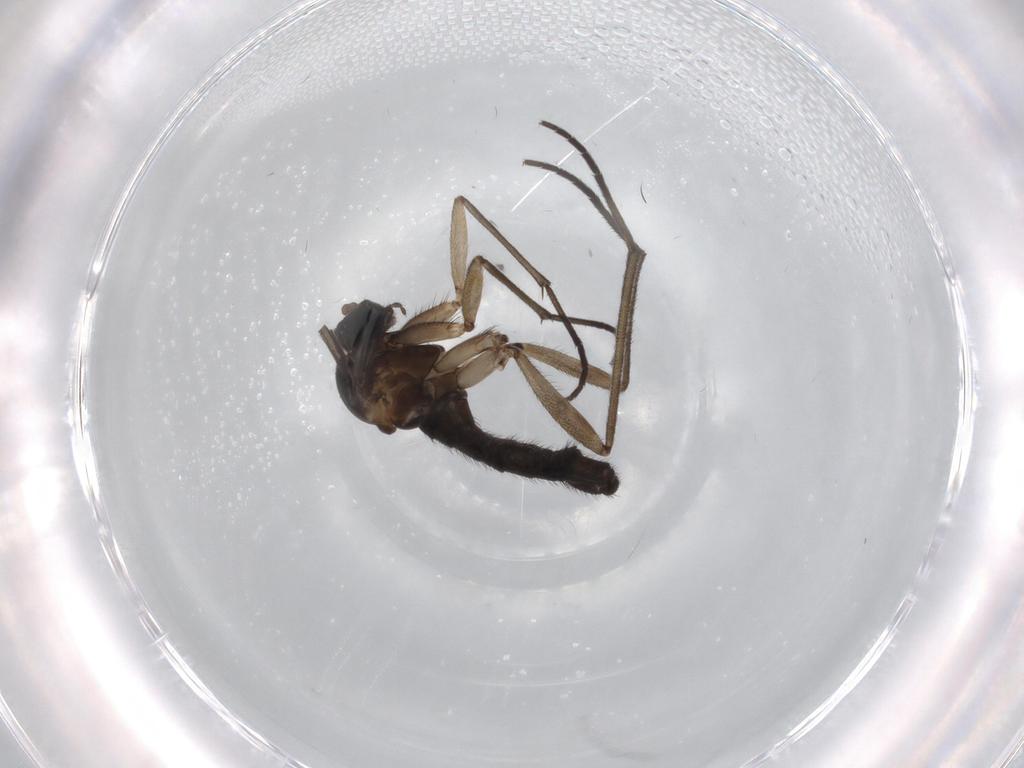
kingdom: Animalia
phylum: Arthropoda
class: Insecta
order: Diptera
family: Sciaridae
